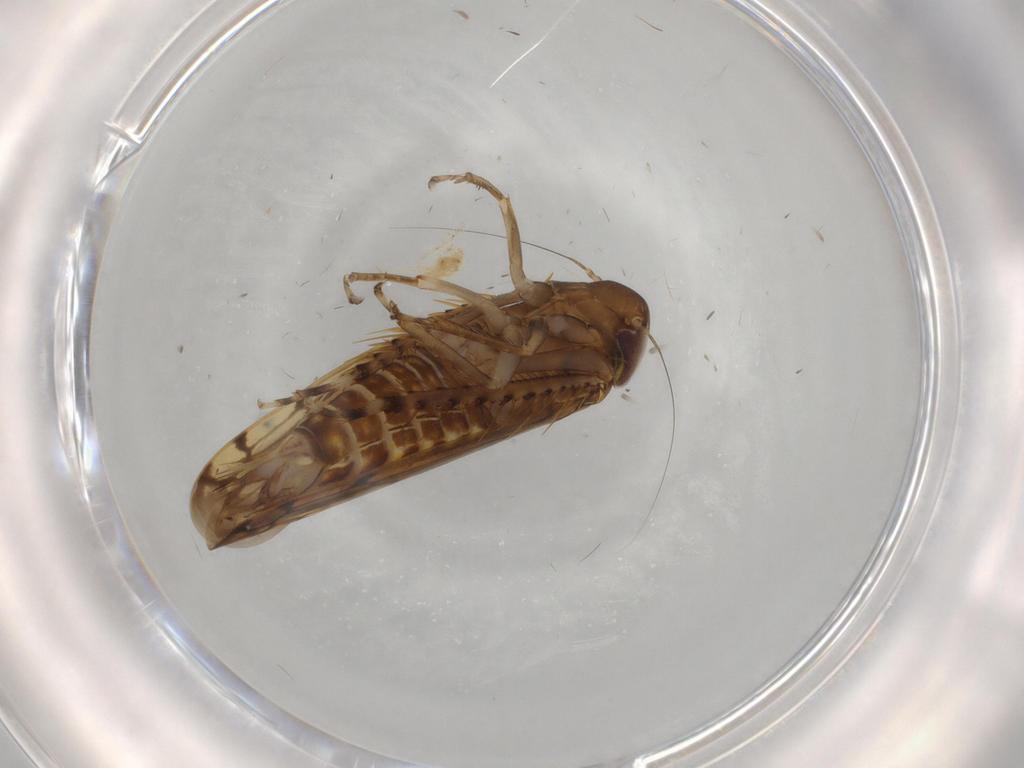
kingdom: Animalia
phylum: Arthropoda
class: Insecta
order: Hemiptera
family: Cicadellidae
